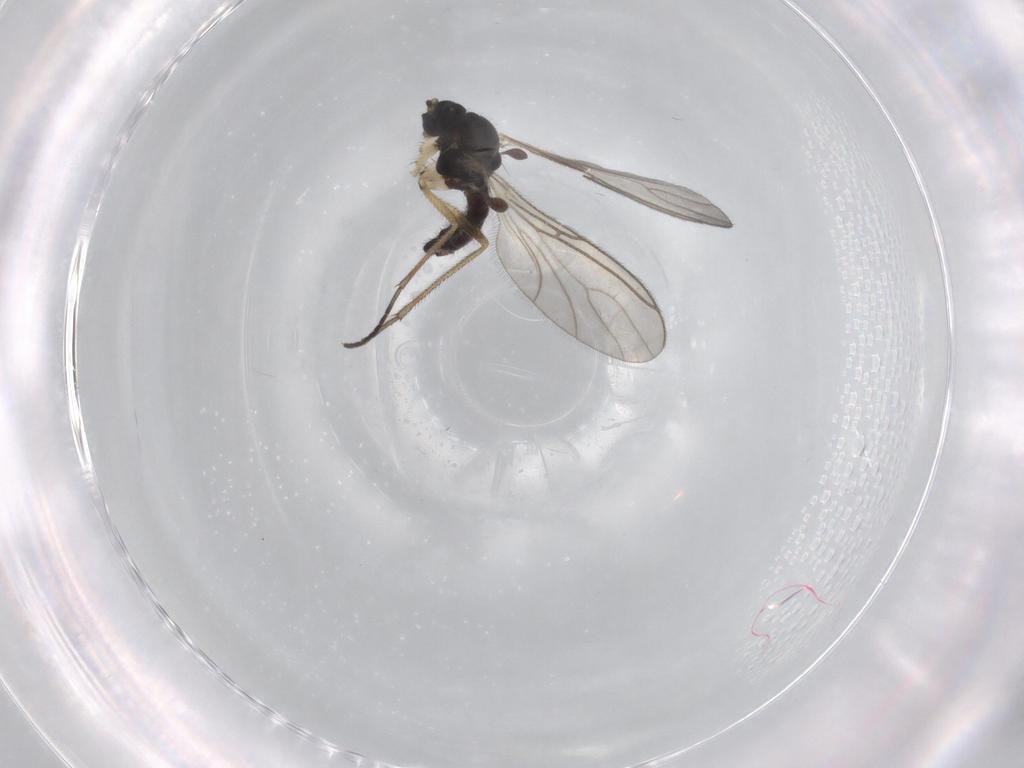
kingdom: Animalia
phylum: Arthropoda
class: Insecta
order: Diptera
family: Sciaridae
